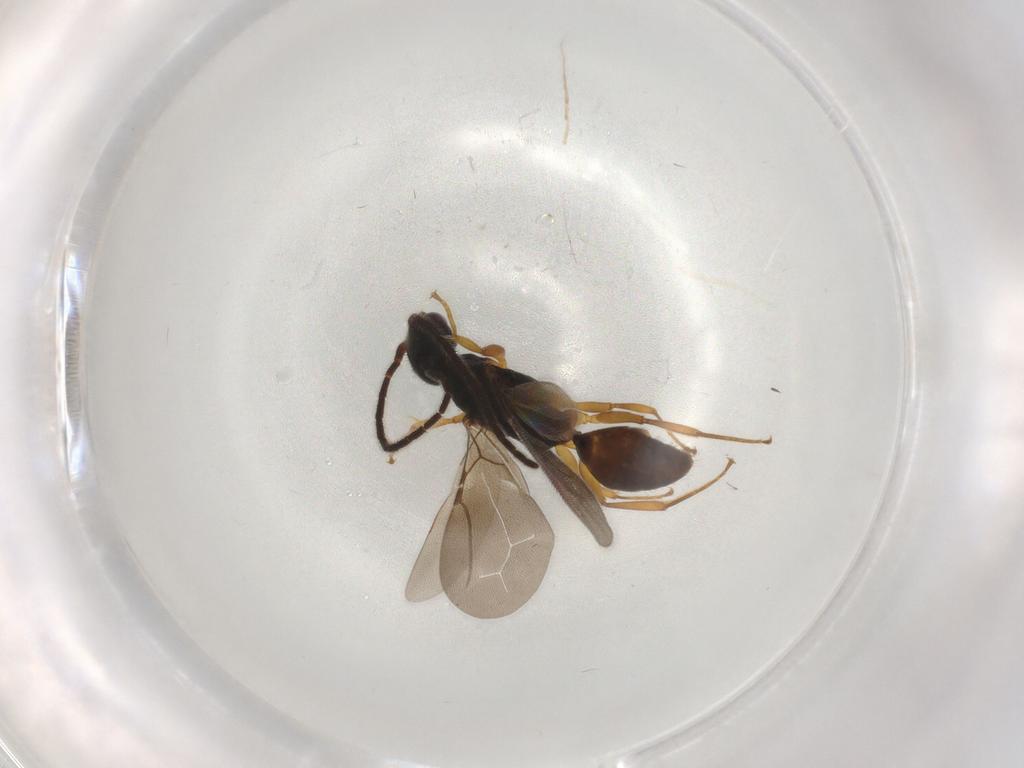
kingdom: Animalia
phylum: Arthropoda
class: Insecta
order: Hymenoptera
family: Bethylidae
